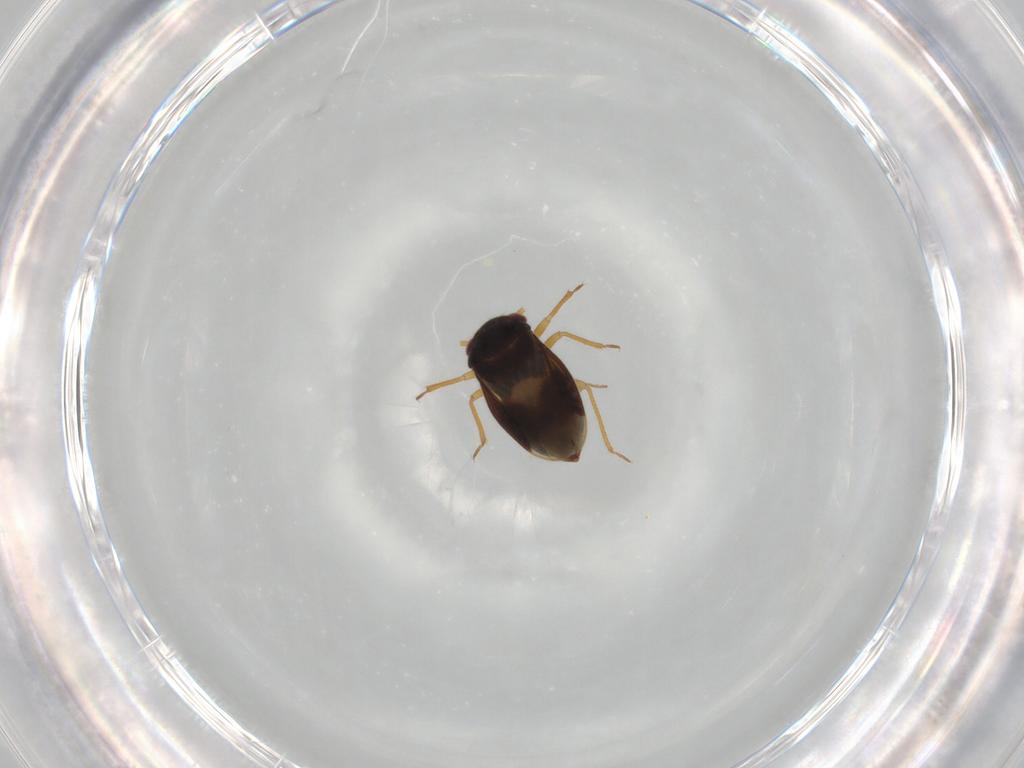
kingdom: Animalia
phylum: Arthropoda
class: Insecta
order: Hemiptera
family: Schizopteridae
